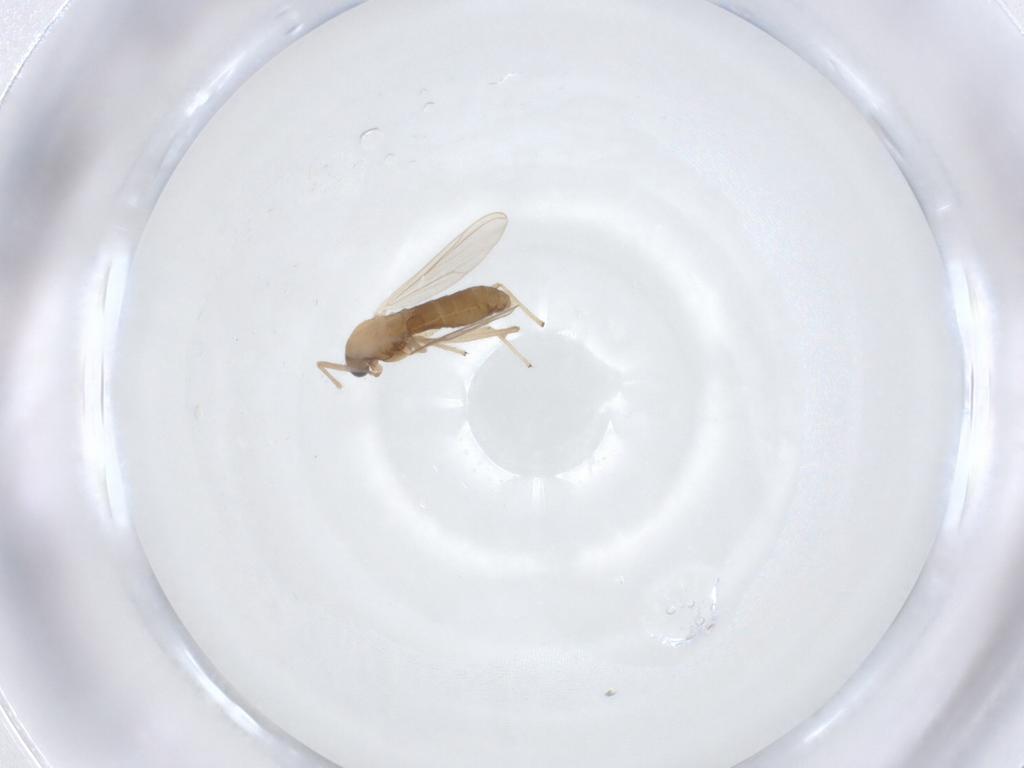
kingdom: Animalia
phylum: Arthropoda
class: Insecta
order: Diptera
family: Chironomidae
